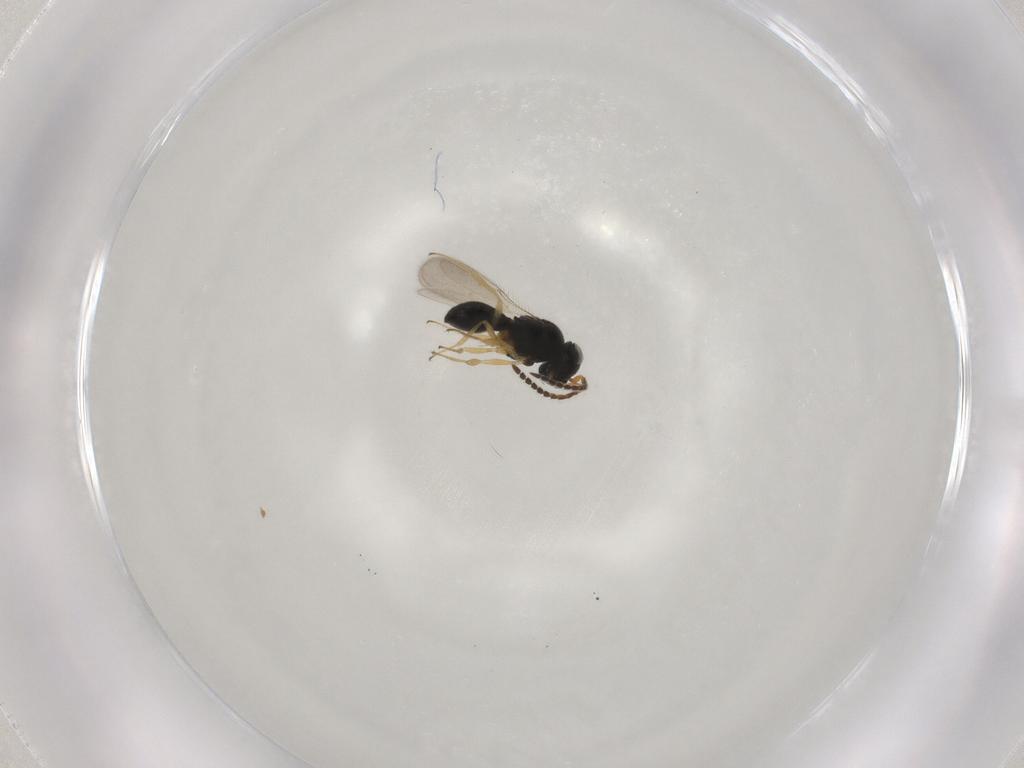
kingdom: Animalia
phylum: Arthropoda
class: Insecta
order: Hymenoptera
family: Scelionidae
